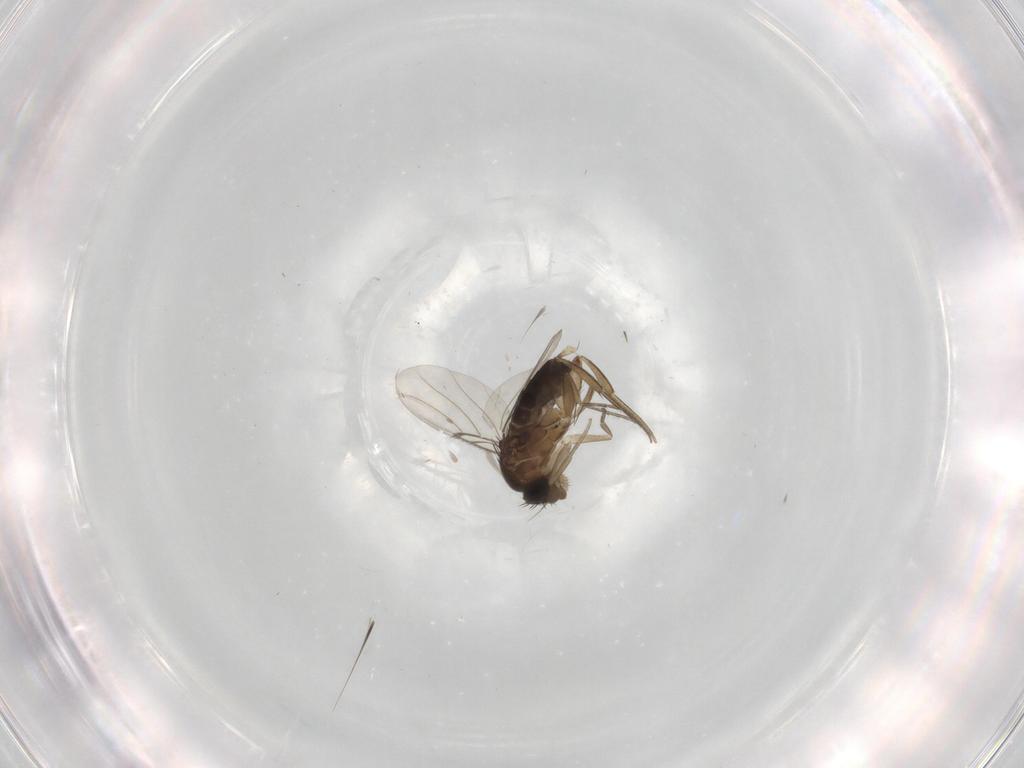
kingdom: Animalia
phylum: Arthropoda
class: Insecta
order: Diptera
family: Phoridae
